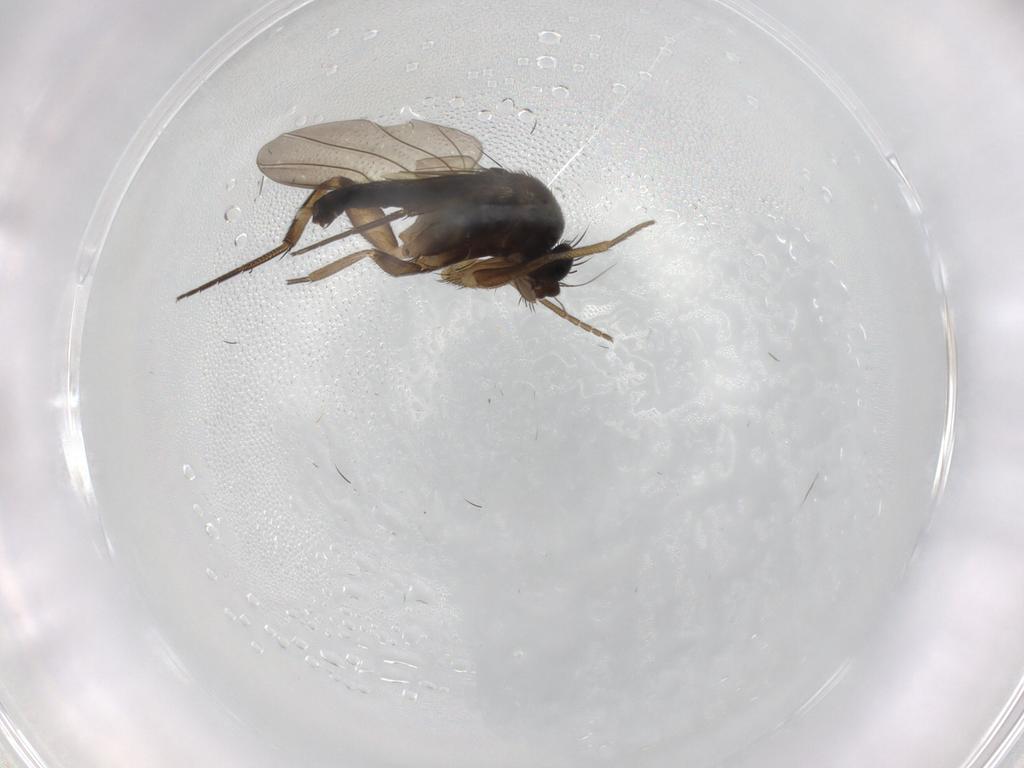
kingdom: Animalia
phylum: Arthropoda
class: Insecta
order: Diptera
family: Phoridae
